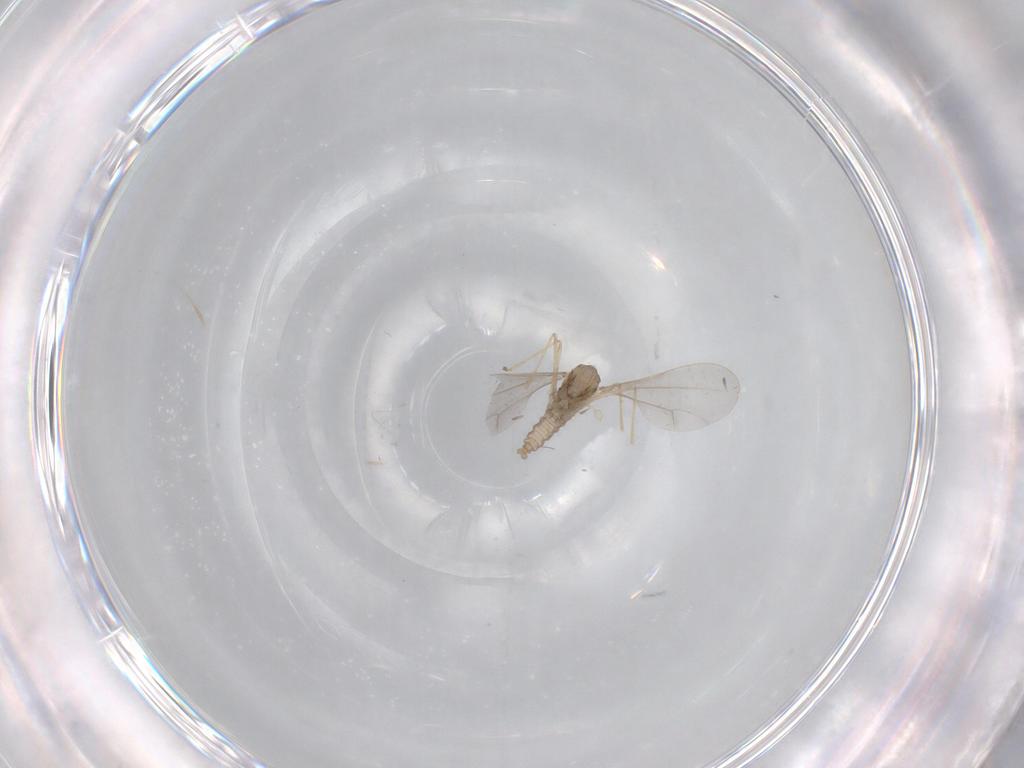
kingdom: Animalia
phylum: Arthropoda
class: Insecta
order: Diptera
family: Cecidomyiidae
